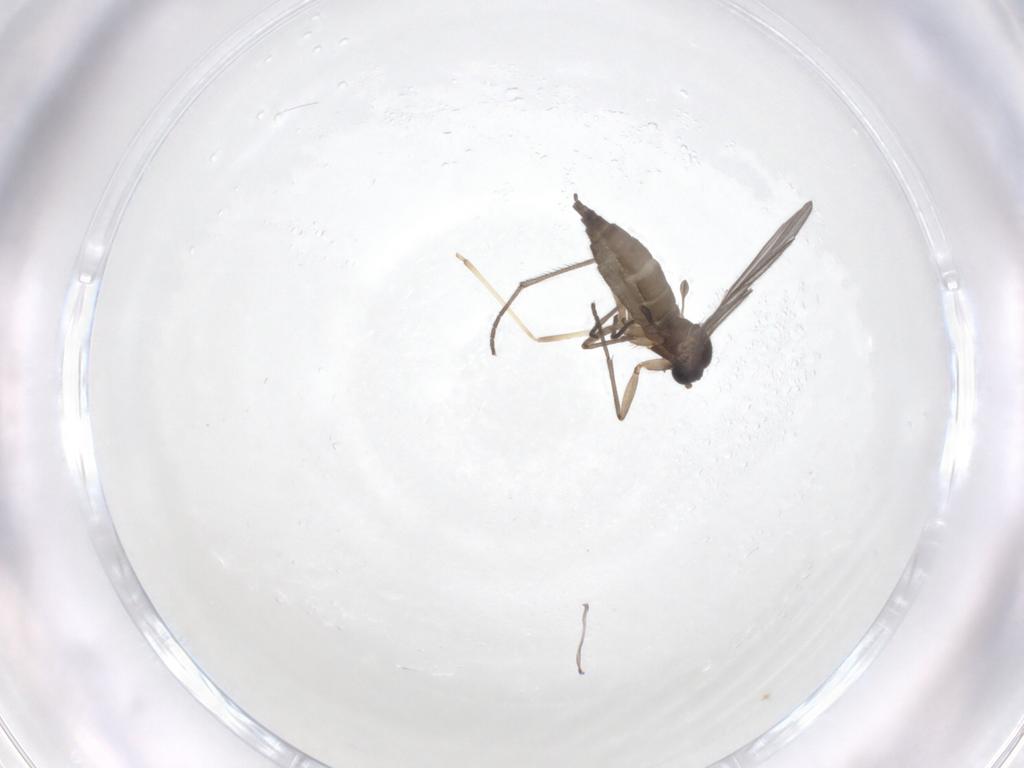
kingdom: Animalia
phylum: Arthropoda
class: Insecta
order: Diptera
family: Cecidomyiidae
